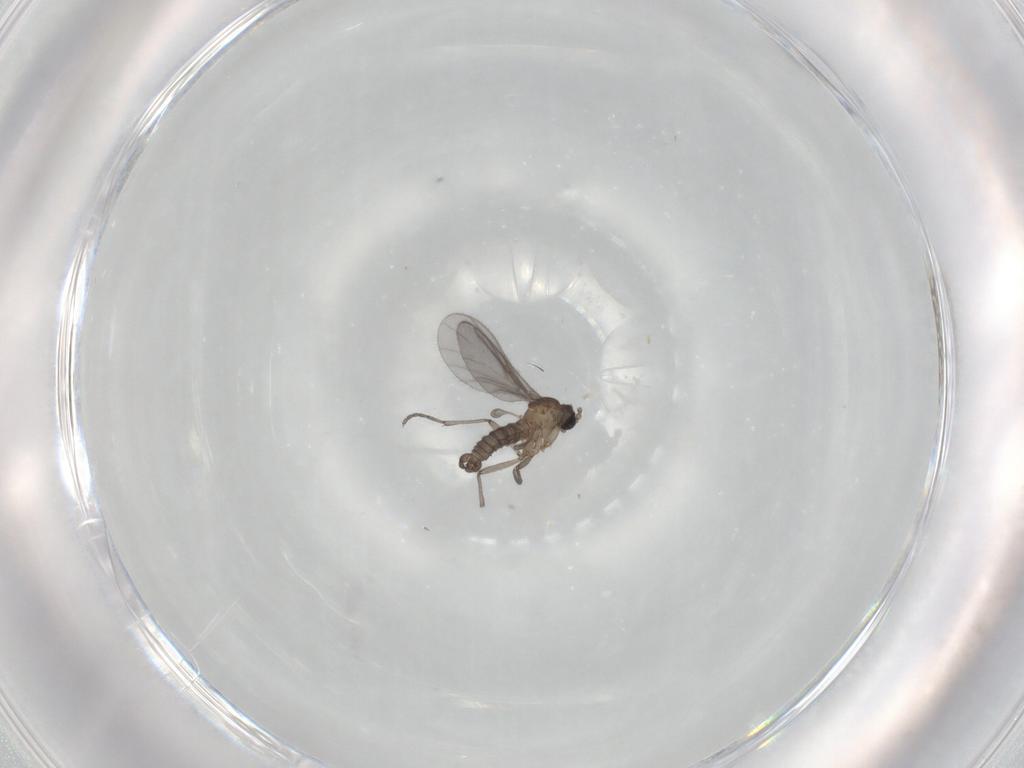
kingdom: Animalia
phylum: Arthropoda
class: Insecta
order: Diptera
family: Sciaridae
